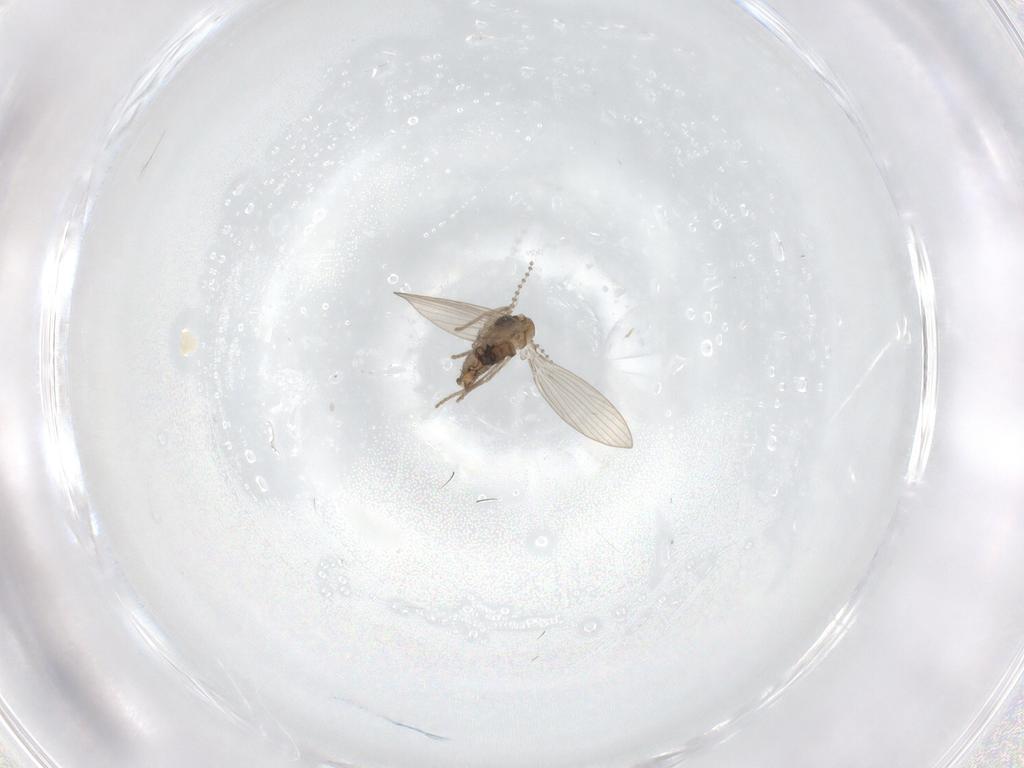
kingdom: Animalia
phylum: Arthropoda
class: Insecta
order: Diptera
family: Psychodidae
